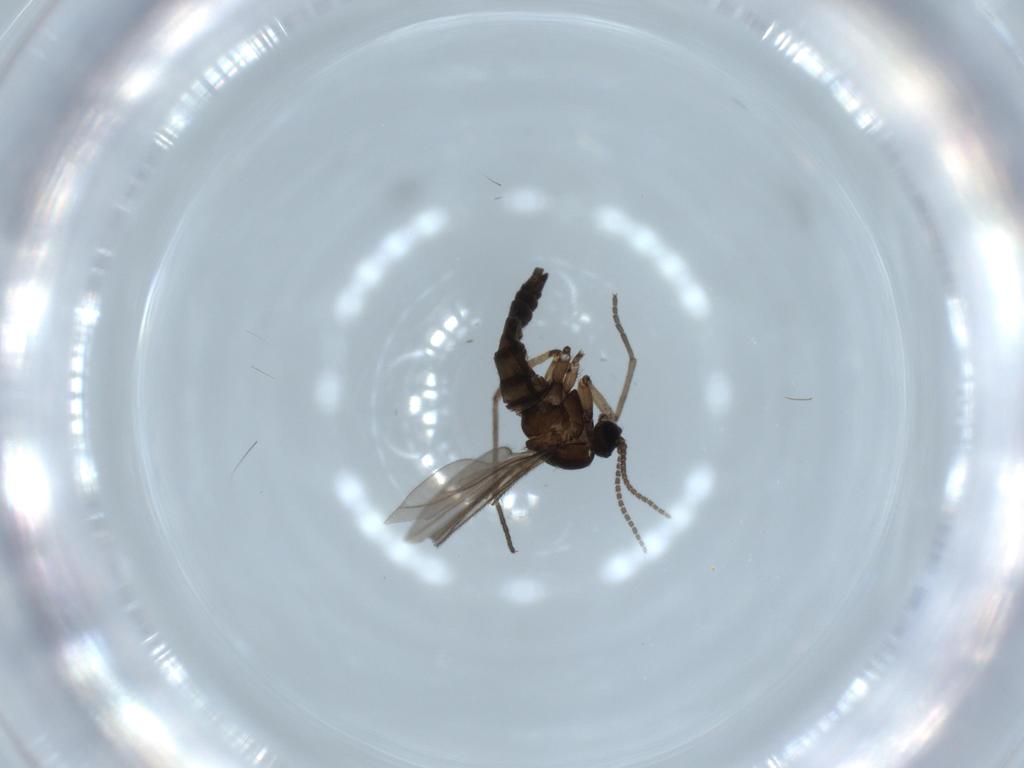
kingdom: Animalia
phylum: Arthropoda
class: Insecta
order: Diptera
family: Sciaridae
